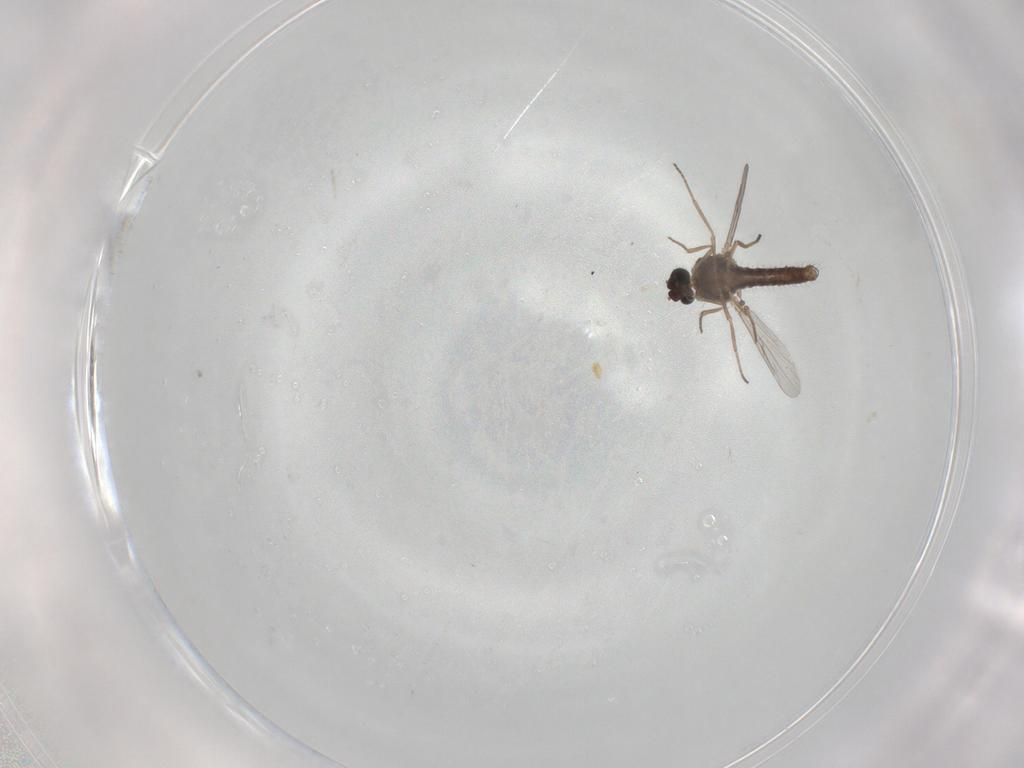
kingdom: Animalia
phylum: Arthropoda
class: Insecta
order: Diptera
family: Ceratopogonidae
